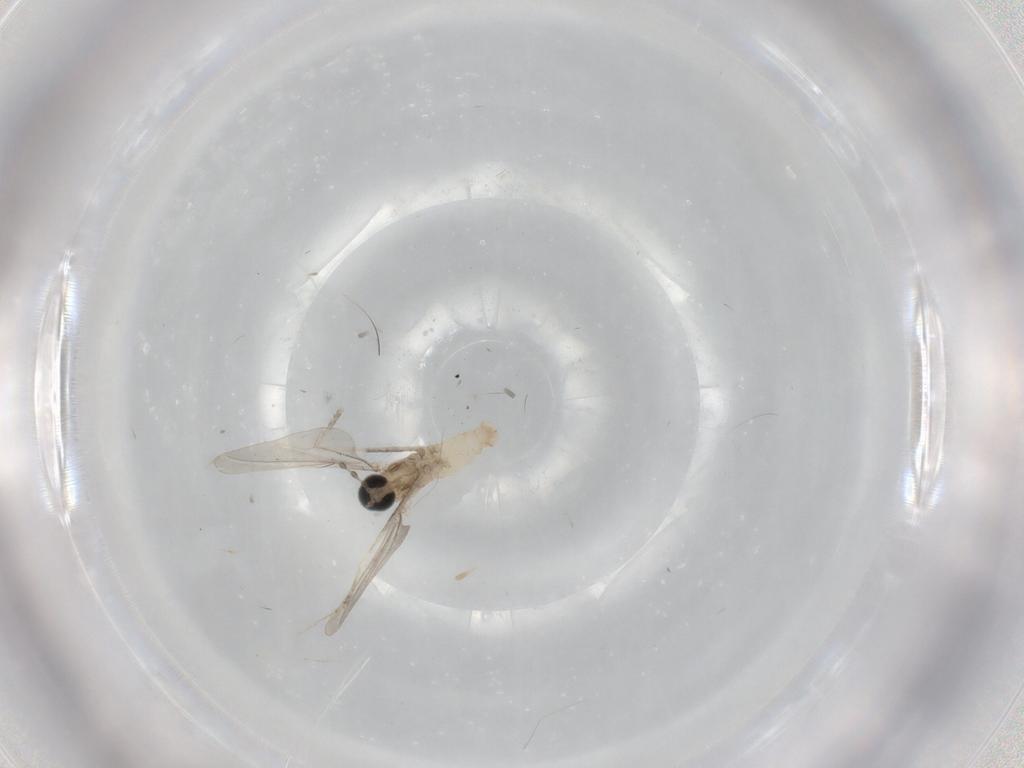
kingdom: Animalia
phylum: Arthropoda
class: Insecta
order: Diptera
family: Cecidomyiidae
